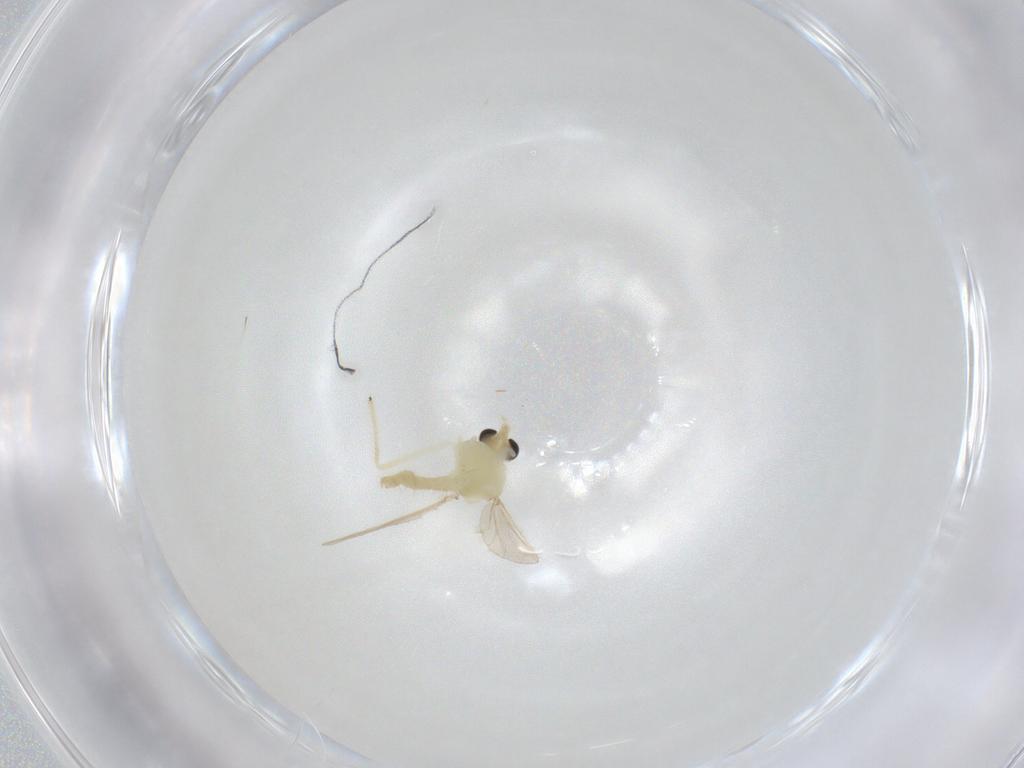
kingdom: Animalia
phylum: Arthropoda
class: Insecta
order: Diptera
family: Chironomidae
